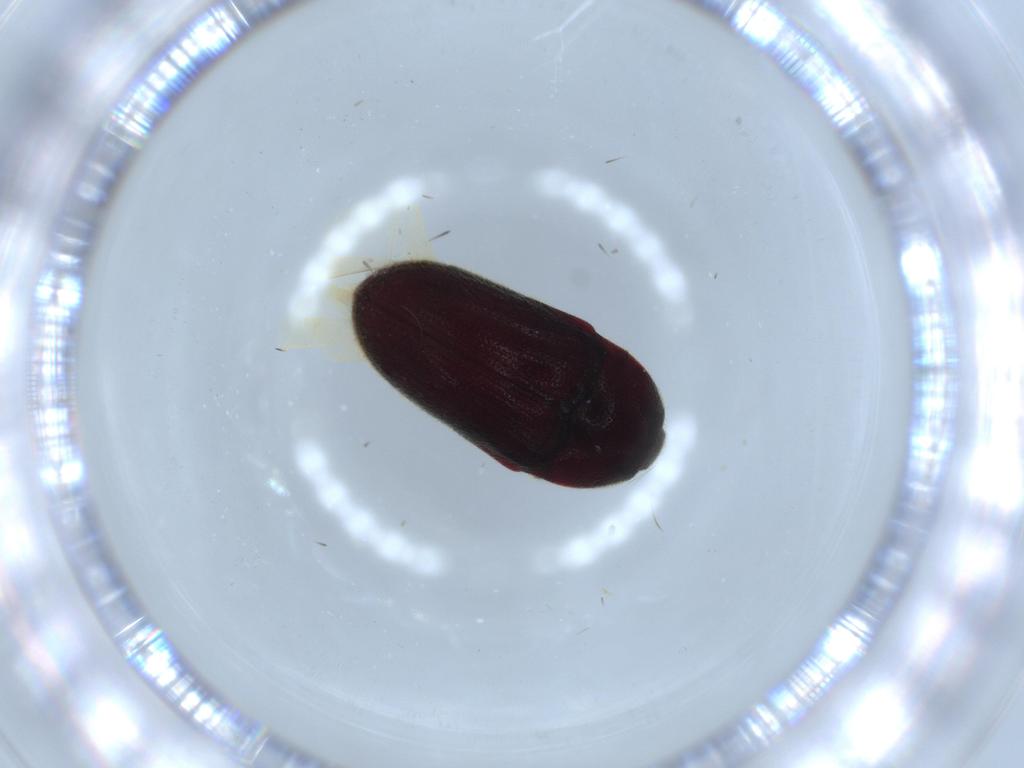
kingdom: Animalia
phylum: Arthropoda
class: Insecta
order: Coleoptera
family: Throscidae
